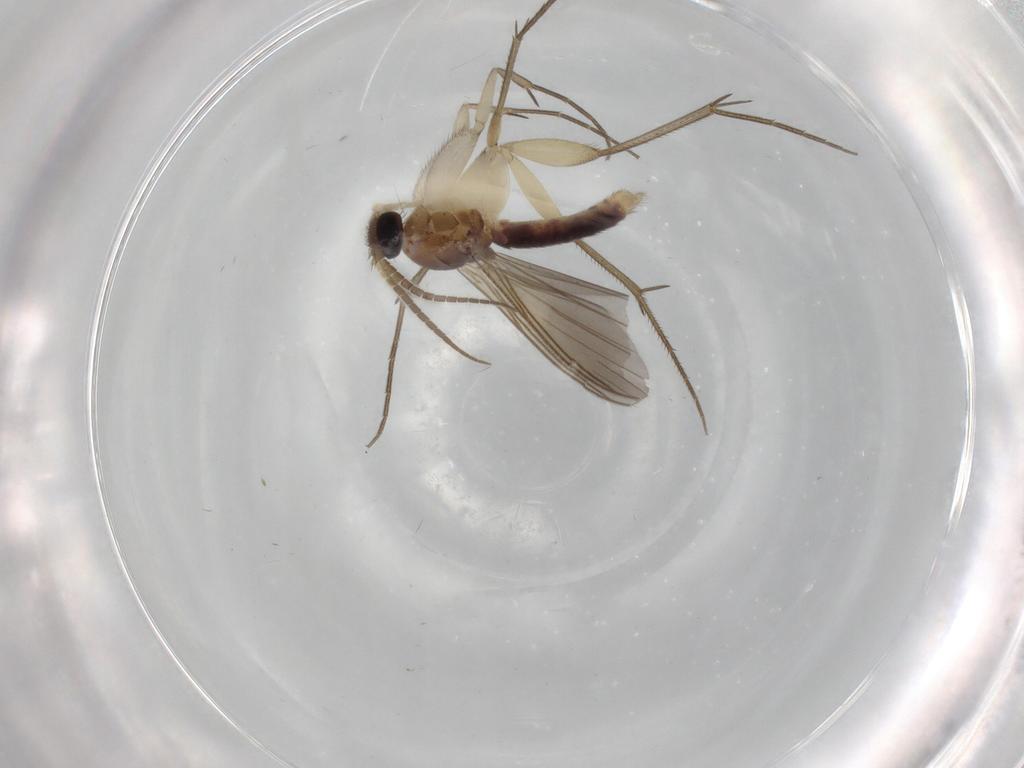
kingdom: Animalia
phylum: Arthropoda
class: Insecta
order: Diptera
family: Mycetophilidae
